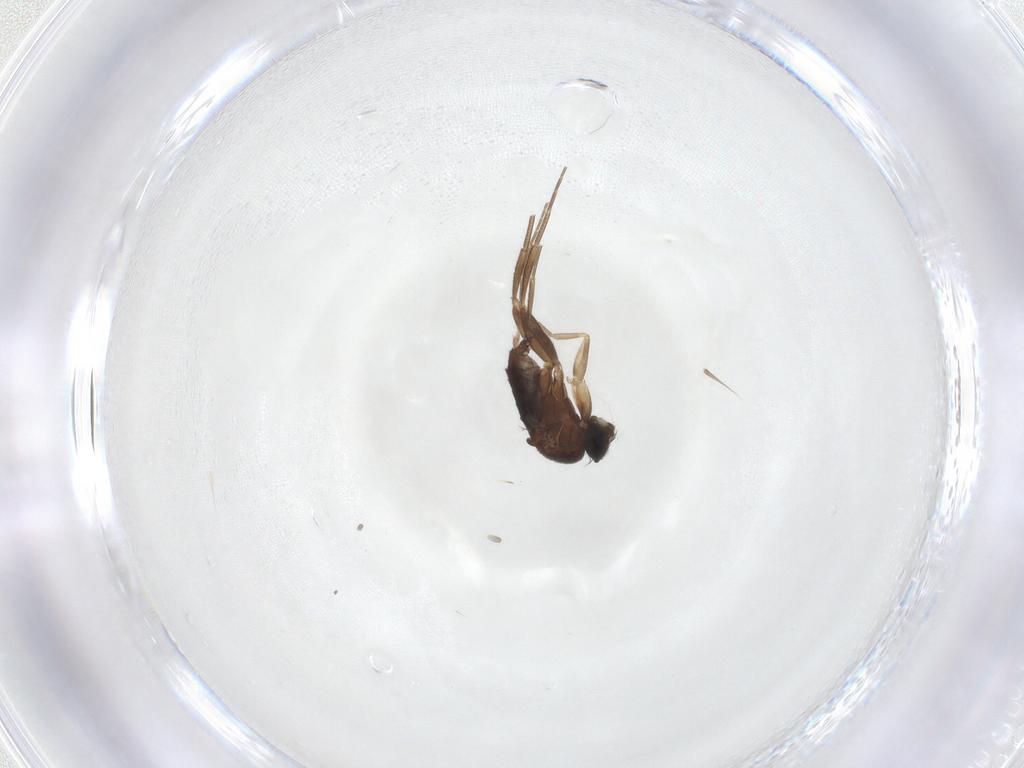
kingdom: Animalia
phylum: Arthropoda
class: Insecta
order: Diptera
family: Phoridae
